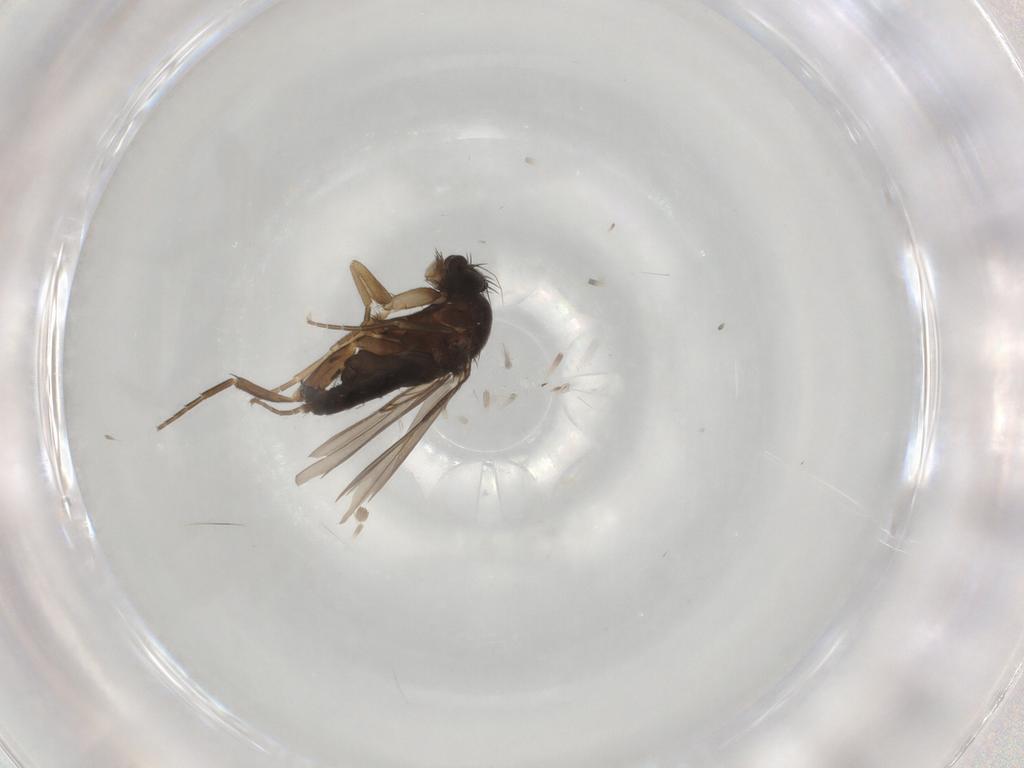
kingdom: Animalia
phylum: Arthropoda
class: Insecta
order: Diptera
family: Phoridae
